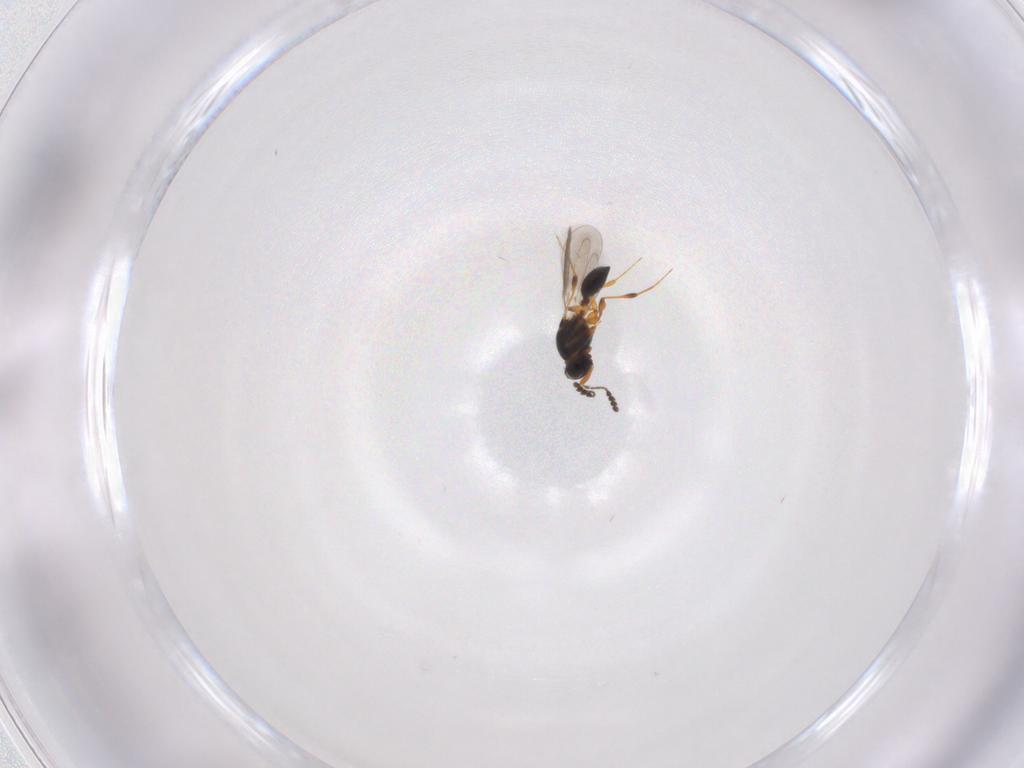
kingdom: Animalia
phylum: Arthropoda
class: Insecta
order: Hymenoptera
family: Platygastridae
